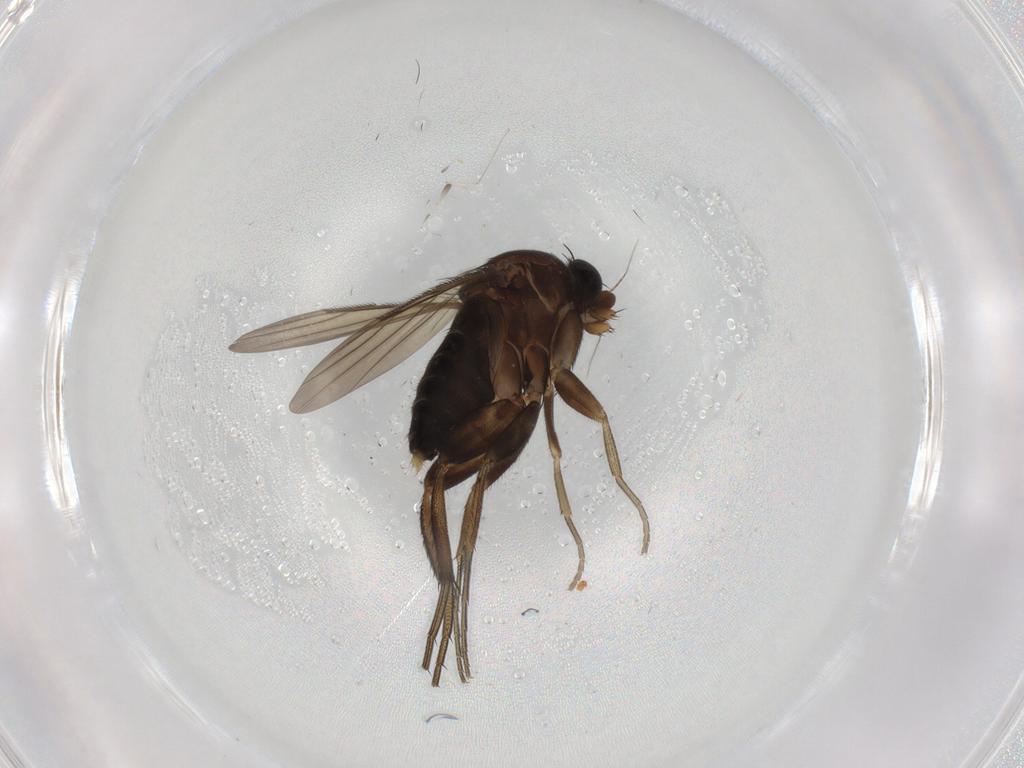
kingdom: Animalia
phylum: Arthropoda
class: Insecta
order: Diptera
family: Phoridae
